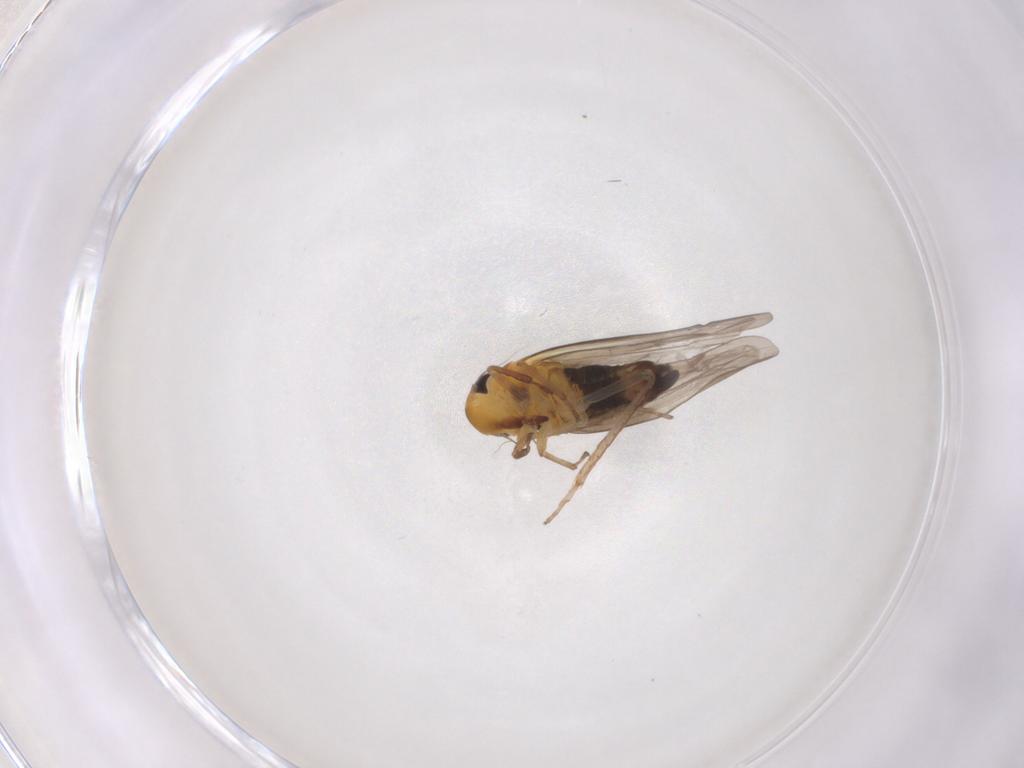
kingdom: Animalia
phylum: Arthropoda
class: Insecta
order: Hemiptera
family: Cicadellidae
